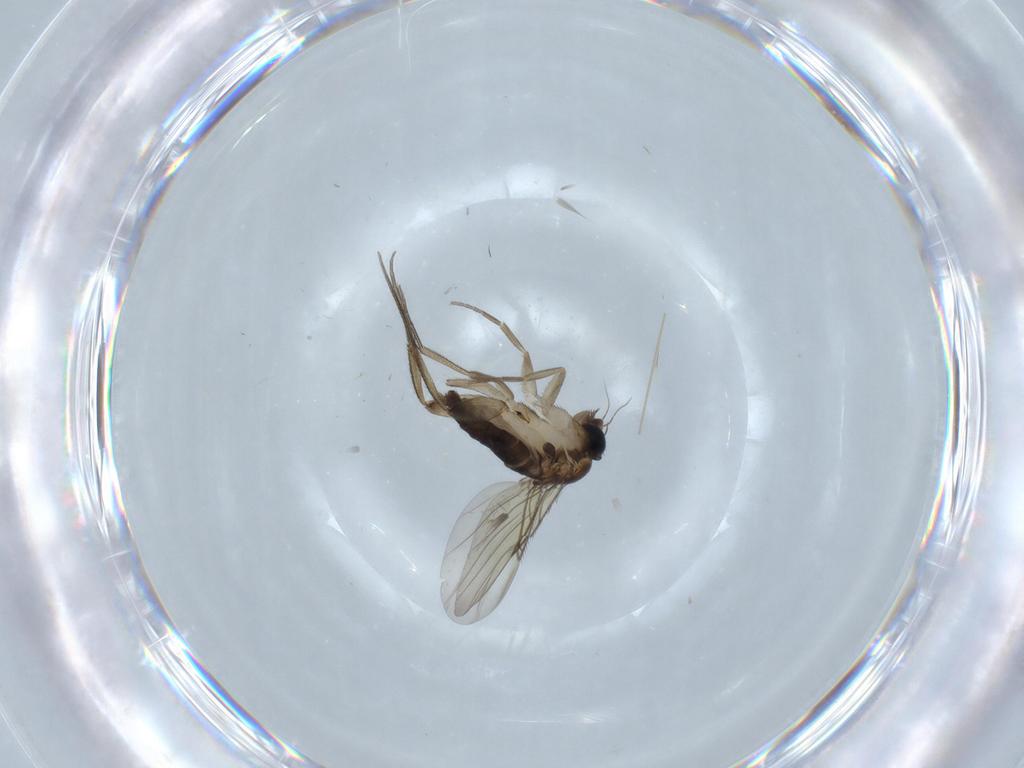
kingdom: Animalia
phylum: Arthropoda
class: Insecta
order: Diptera
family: Phoridae
